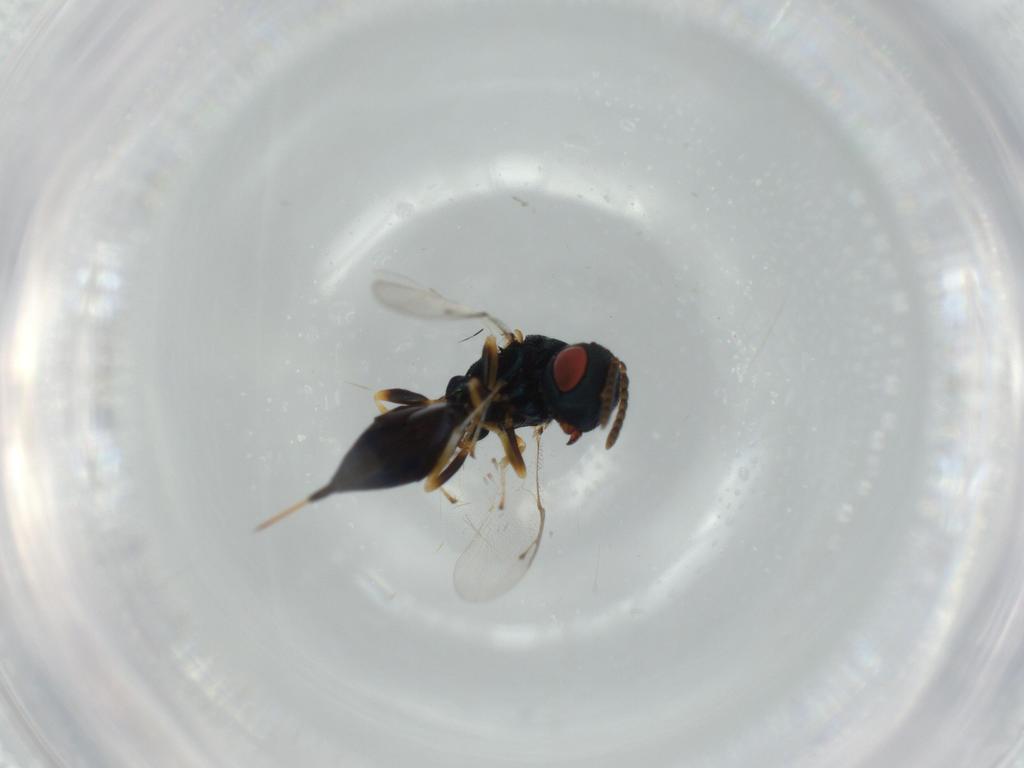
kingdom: Animalia
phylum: Arthropoda
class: Insecta
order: Hymenoptera
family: Pteromalidae
